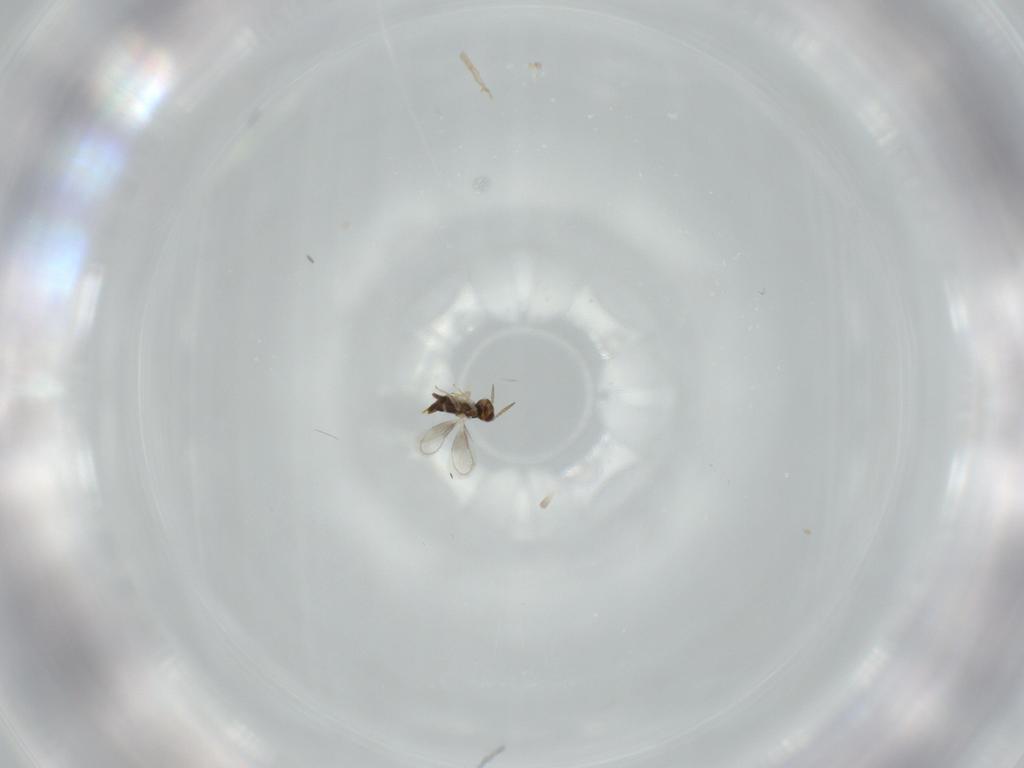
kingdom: Animalia
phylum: Arthropoda
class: Insecta
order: Hymenoptera
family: Aphelinidae
